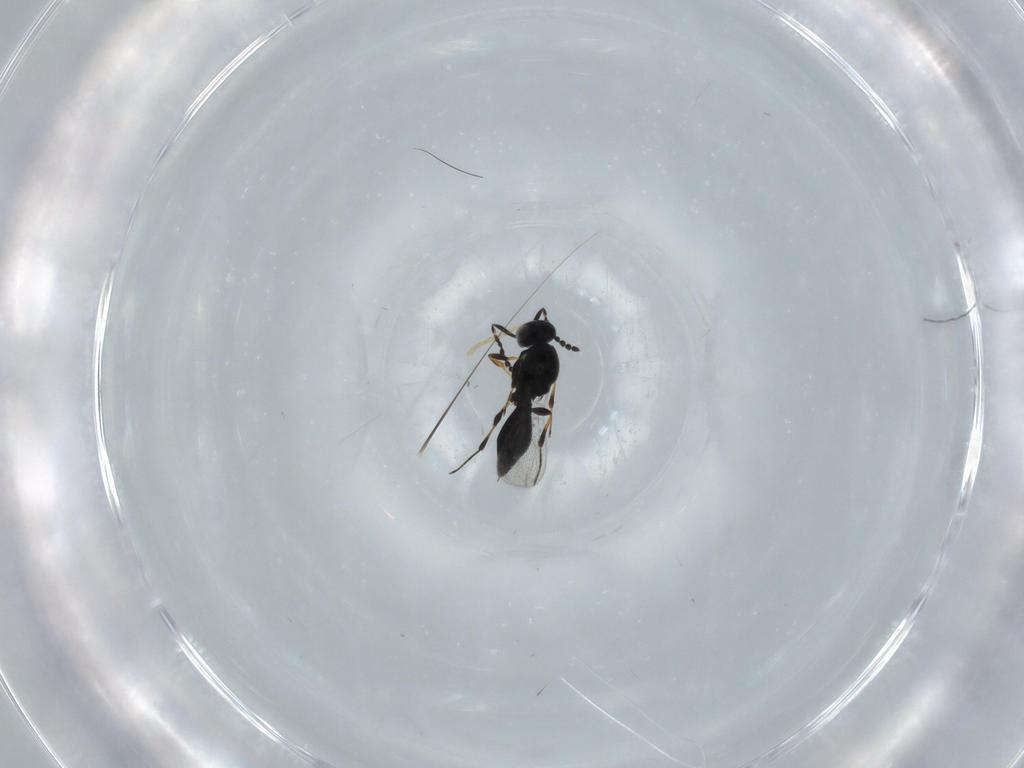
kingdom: Animalia
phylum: Arthropoda
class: Insecta
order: Hymenoptera
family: Platygastridae
